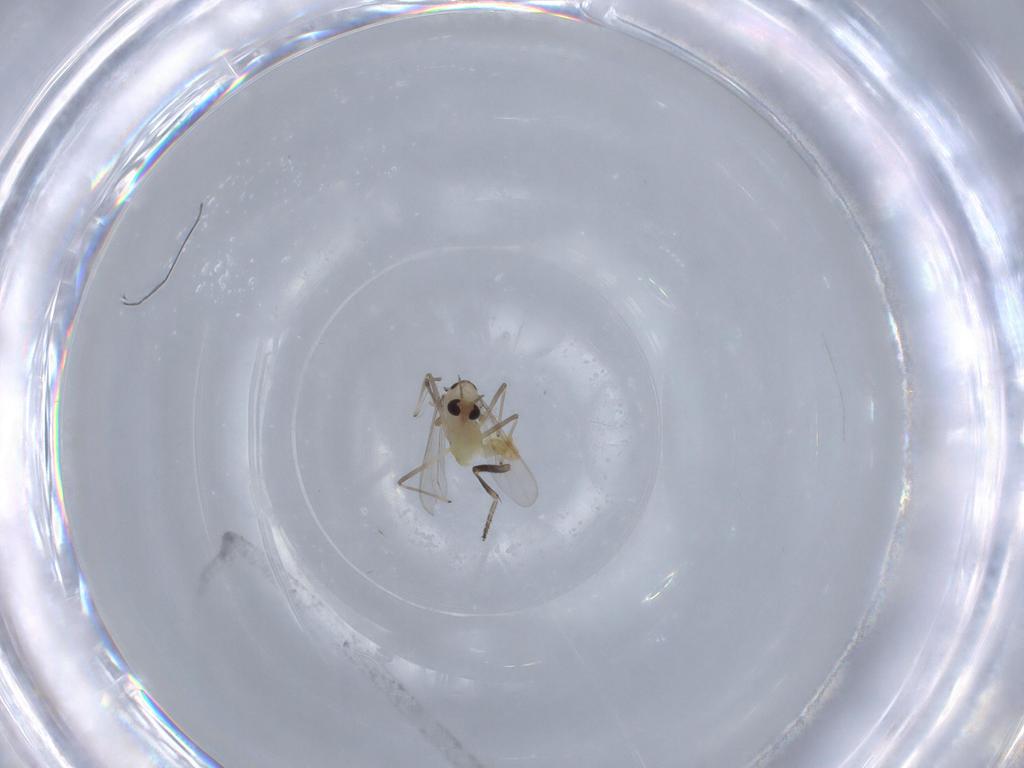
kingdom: Animalia
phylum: Arthropoda
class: Insecta
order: Diptera
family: Chironomidae
